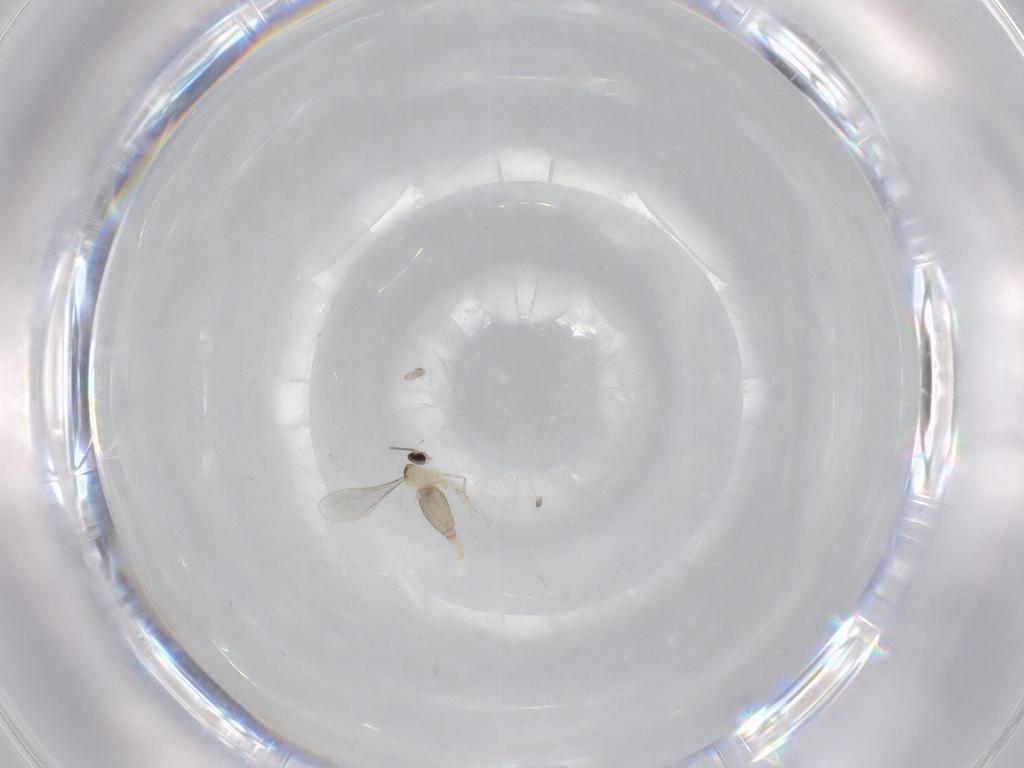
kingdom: Animalia
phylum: Arthropoda
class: Insecta
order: Diptera
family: Cecidomyiidae
